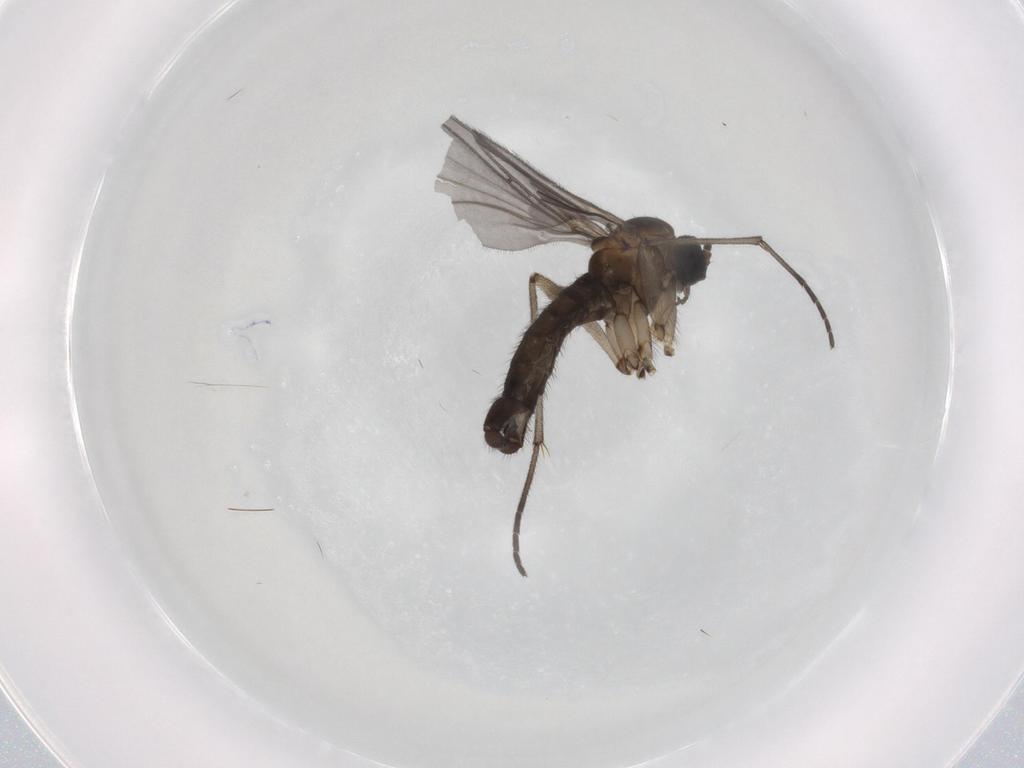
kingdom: Animalia
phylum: Arthropoda
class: Insecta
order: Diptera
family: Sciaridae
